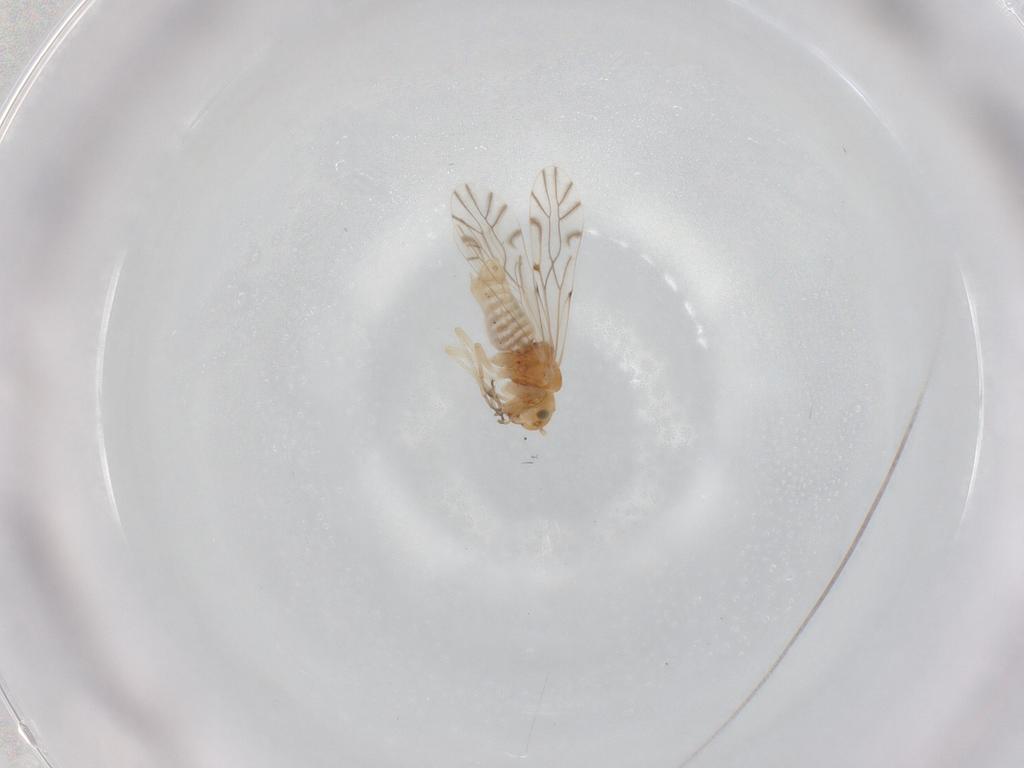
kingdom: Animalia
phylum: Arthropoda
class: Insecta
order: Psocodea
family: Lachesillidae
